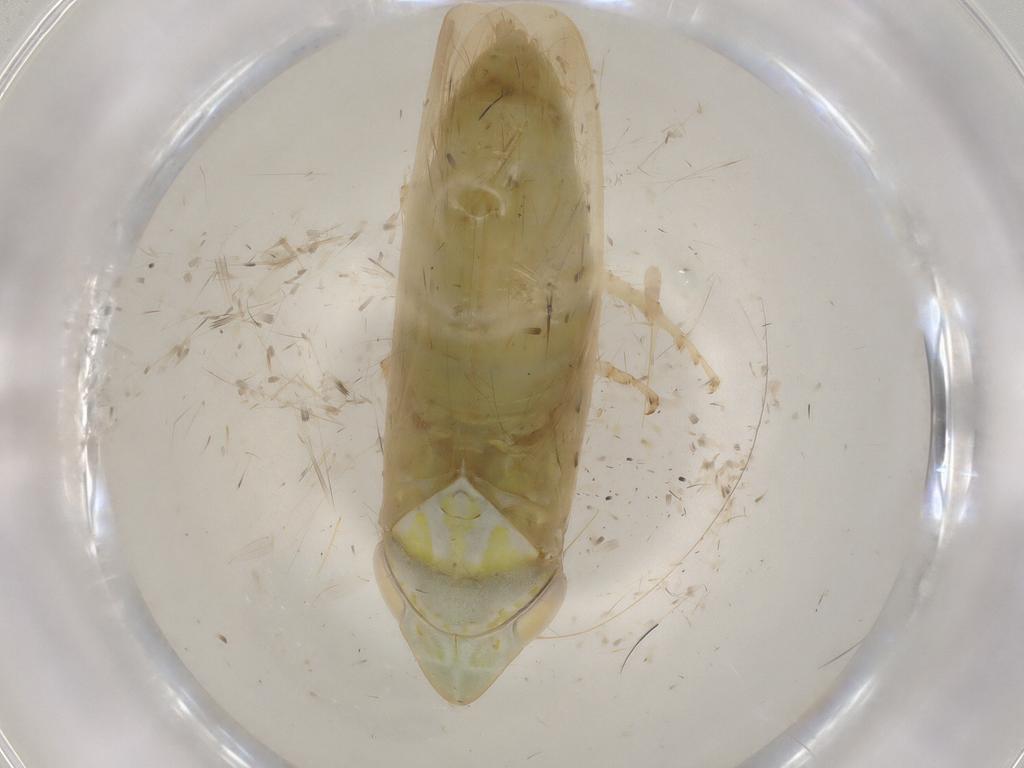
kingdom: Animalia
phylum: Arthropoda
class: Insecta
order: Hemiptera
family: Cicadellidae
